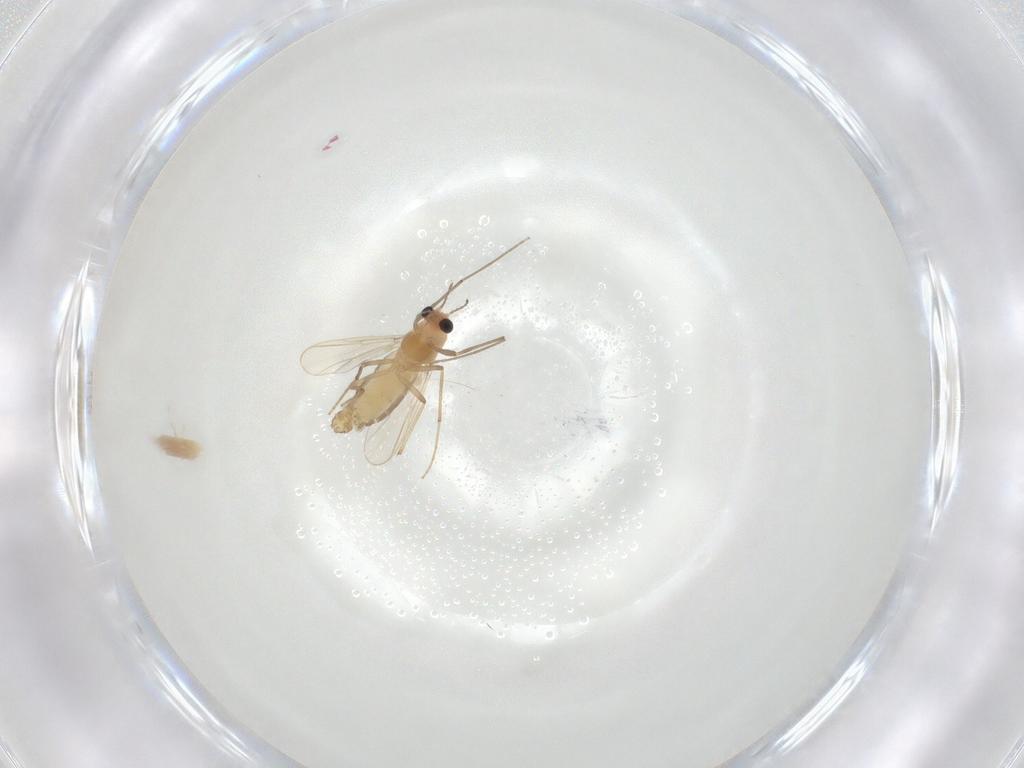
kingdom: Animalia
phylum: Arthropoda
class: Insecta
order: Diptera
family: Chironomidae
